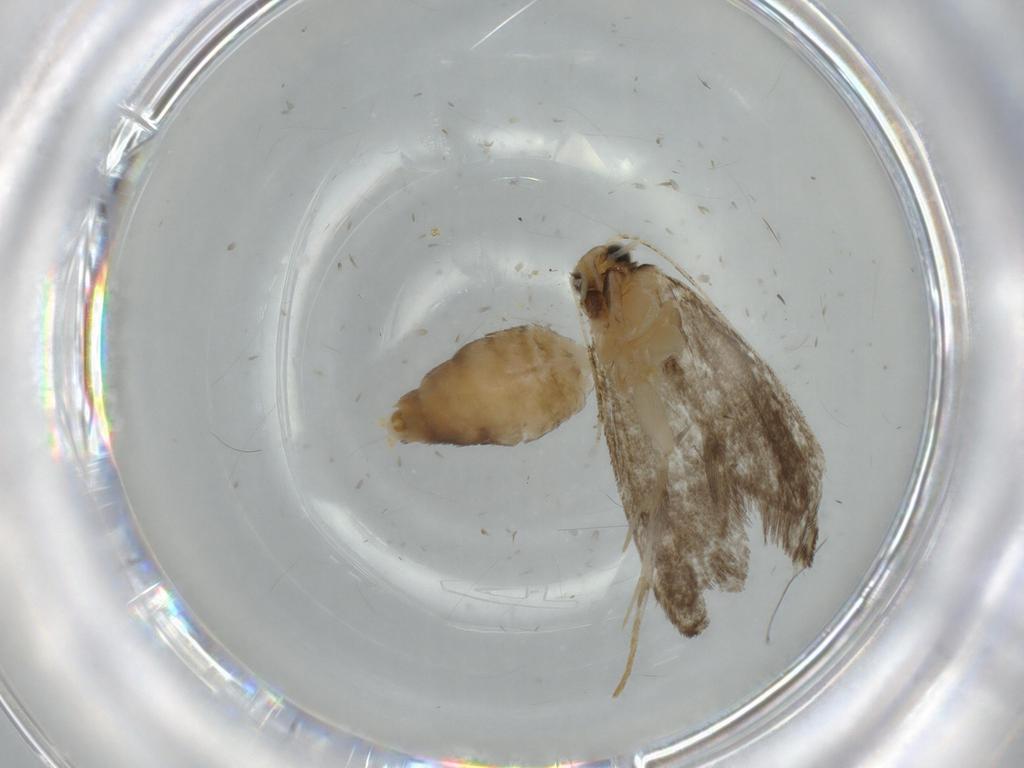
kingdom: Animalia
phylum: Arthropoda
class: Insecta
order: Lepidoptera
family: Tineidae
